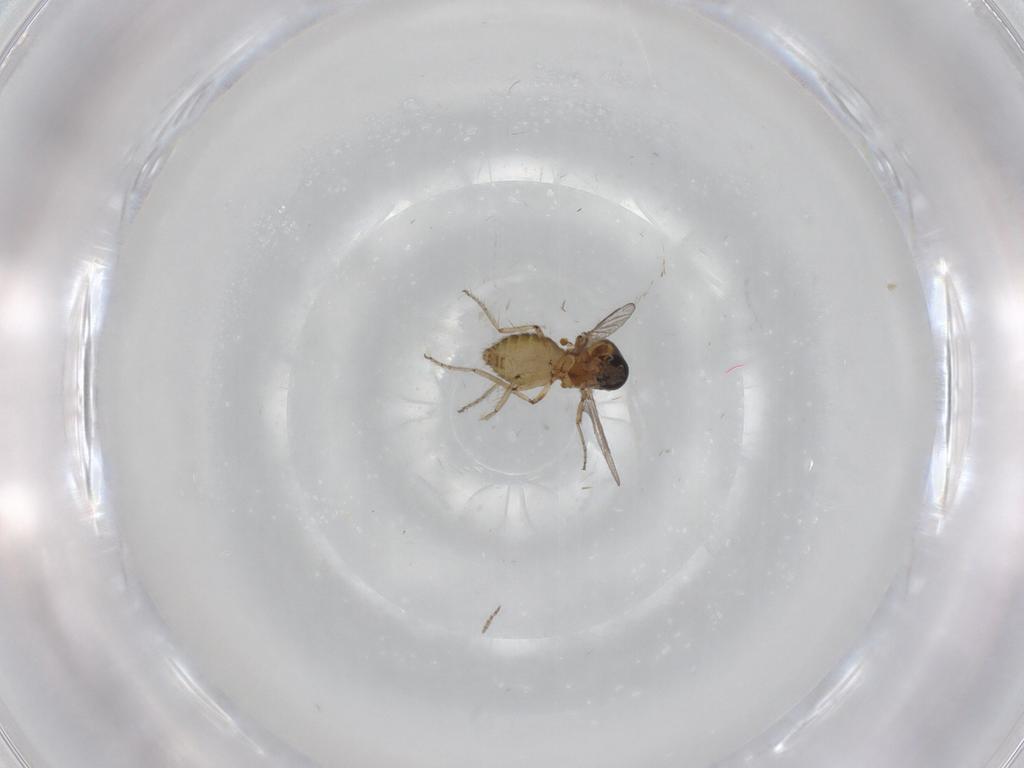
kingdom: Animalia
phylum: Arthropoda
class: Insecta
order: Diptera
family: Ceratopogonidae
